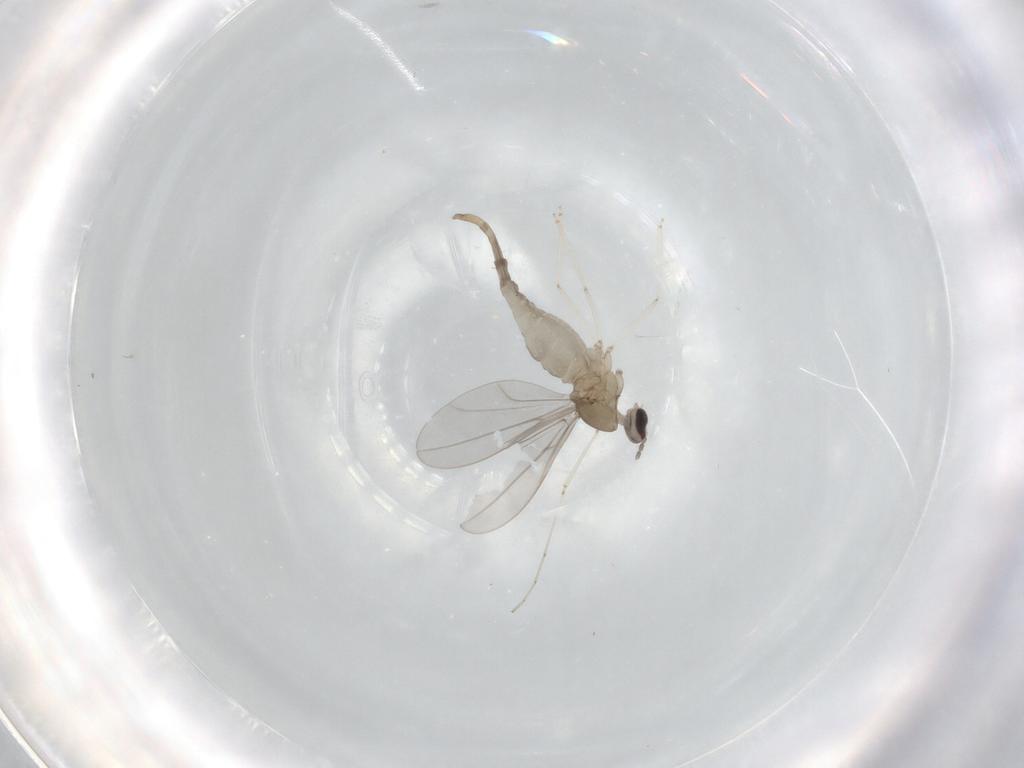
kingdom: Animalia
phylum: Arthropoda
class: Insecta
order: Diptera
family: Cecidomyiidae
